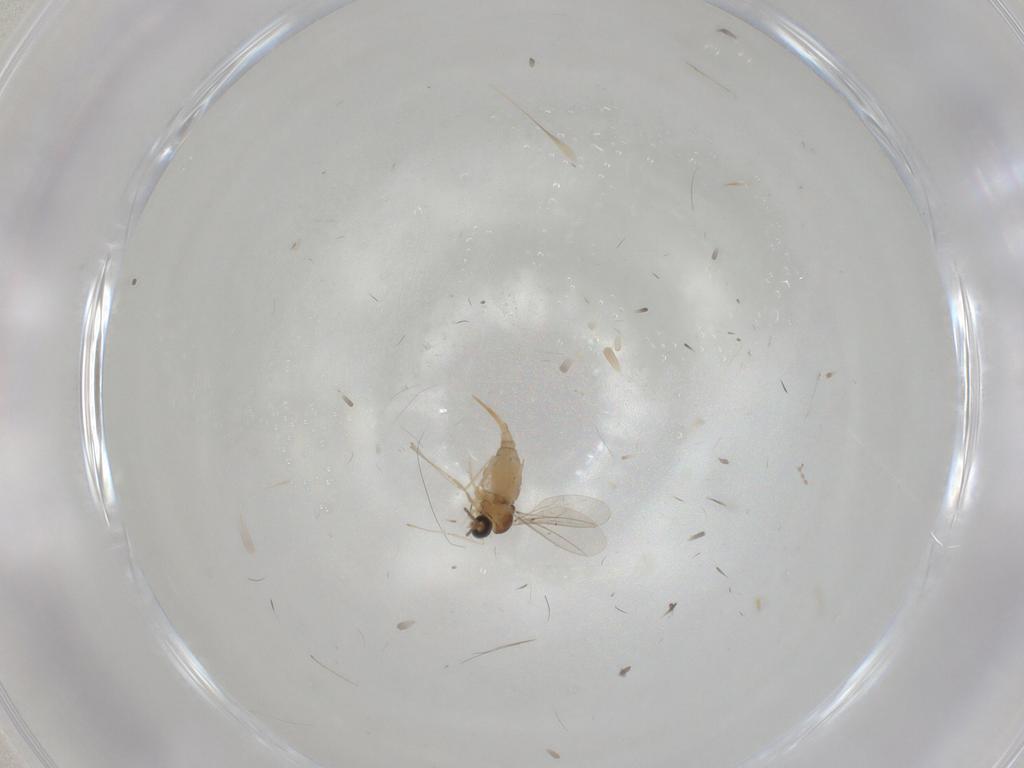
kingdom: Animalia
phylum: Arthropoda
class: Insecta
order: Diptera
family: Cecidomyiidae
